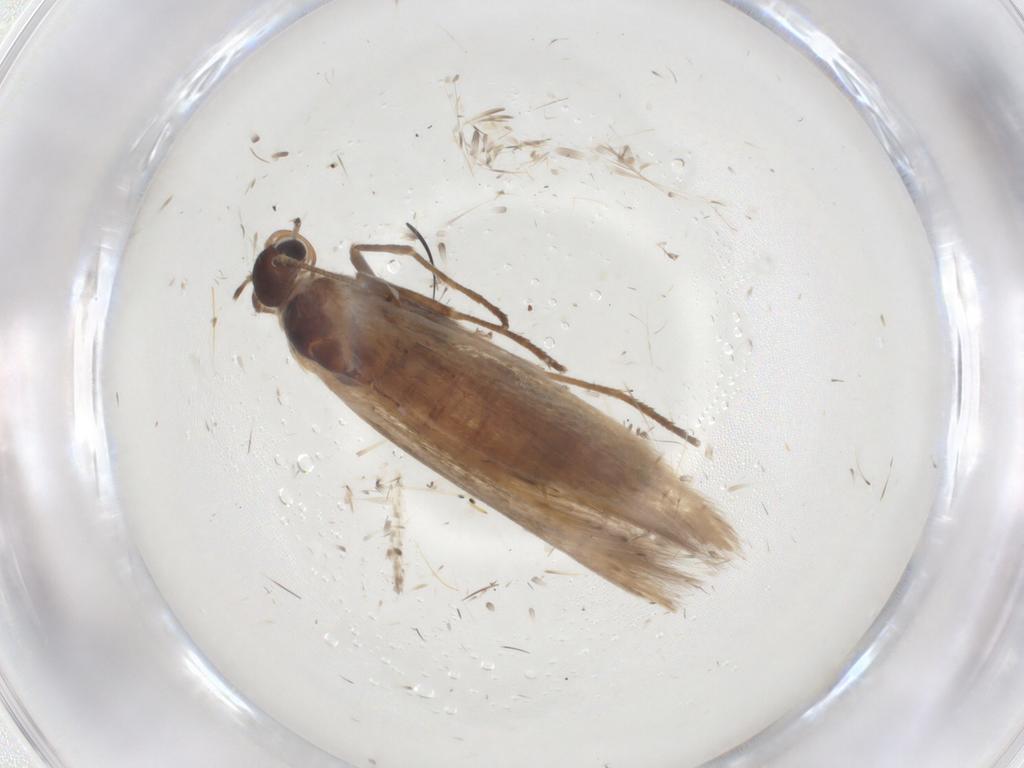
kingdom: Animalia
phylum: Arthropoda
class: Insecta
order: Lepidoptera
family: Scythrididae
